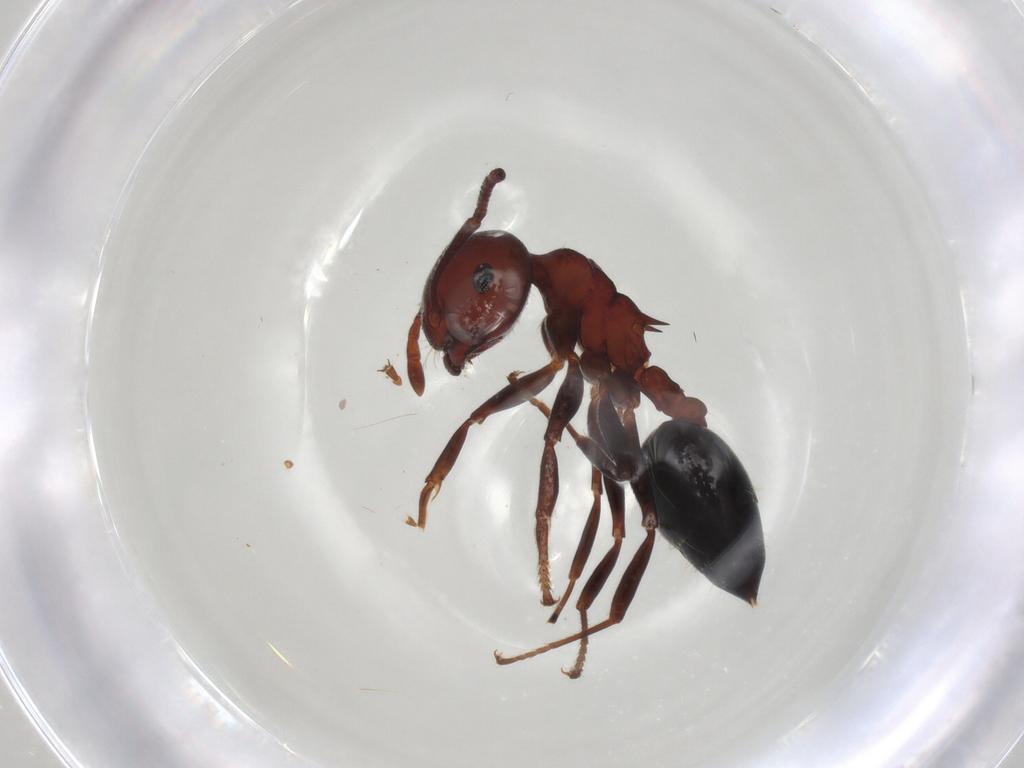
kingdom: Animalia
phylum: Arthropoda
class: Insecta
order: Hymenoptera
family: Formicidae
